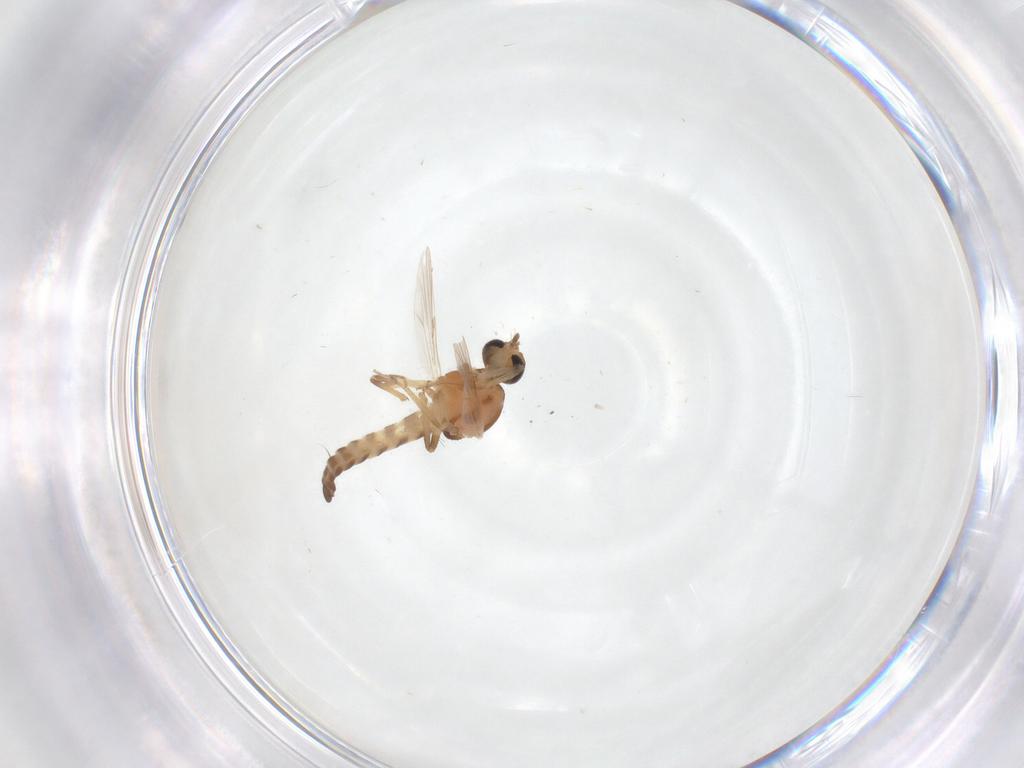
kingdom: Animalia
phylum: Arthropoda
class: Insecta
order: Diptera
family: Ceratopogonidae
